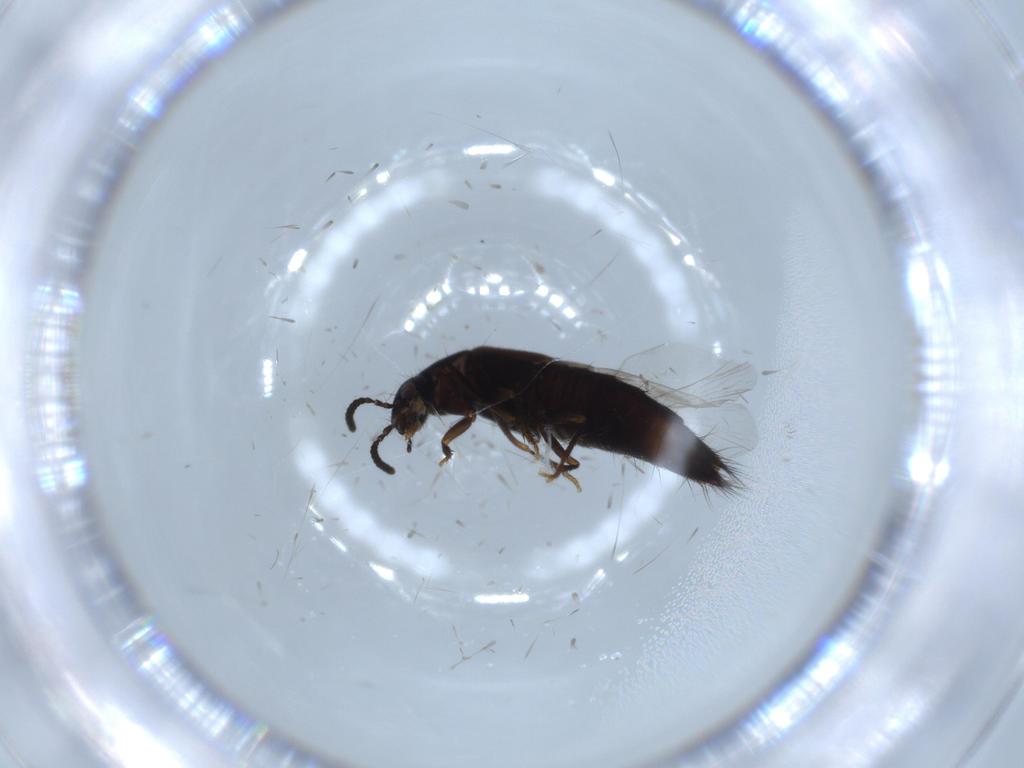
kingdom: Animalia
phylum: Arthropoda
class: Insecta
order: Coleoptera
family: Staphylinidae
